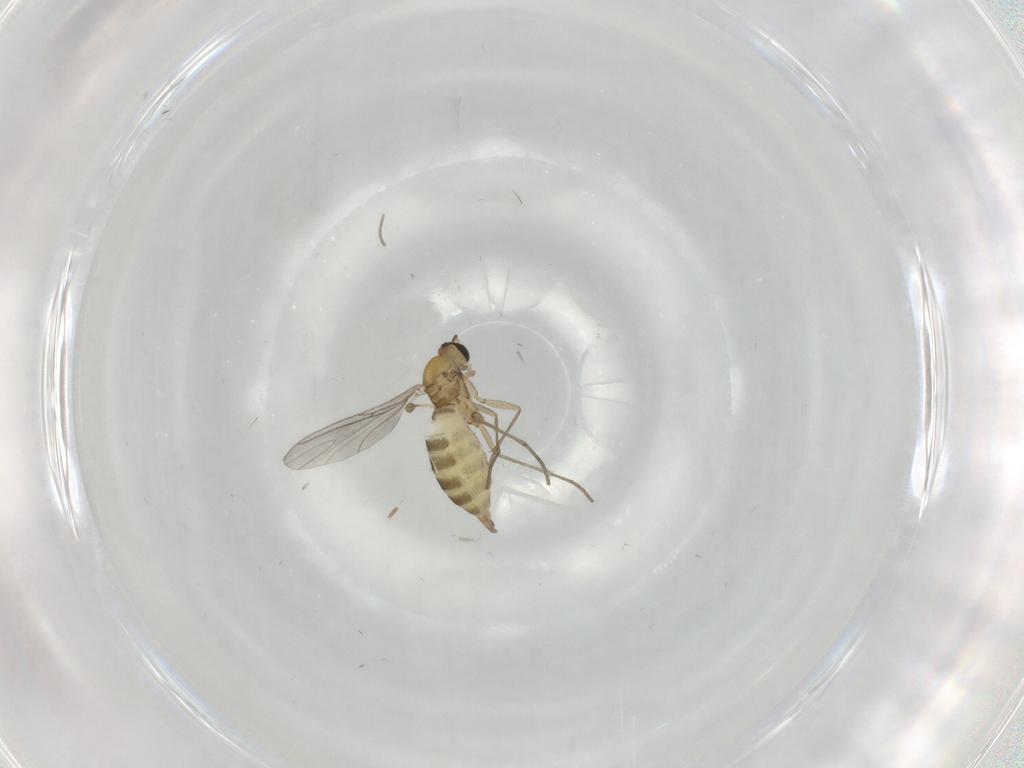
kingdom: Animalia
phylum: Arthropoda
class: Insecta
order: Diptera
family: Sciaridae
